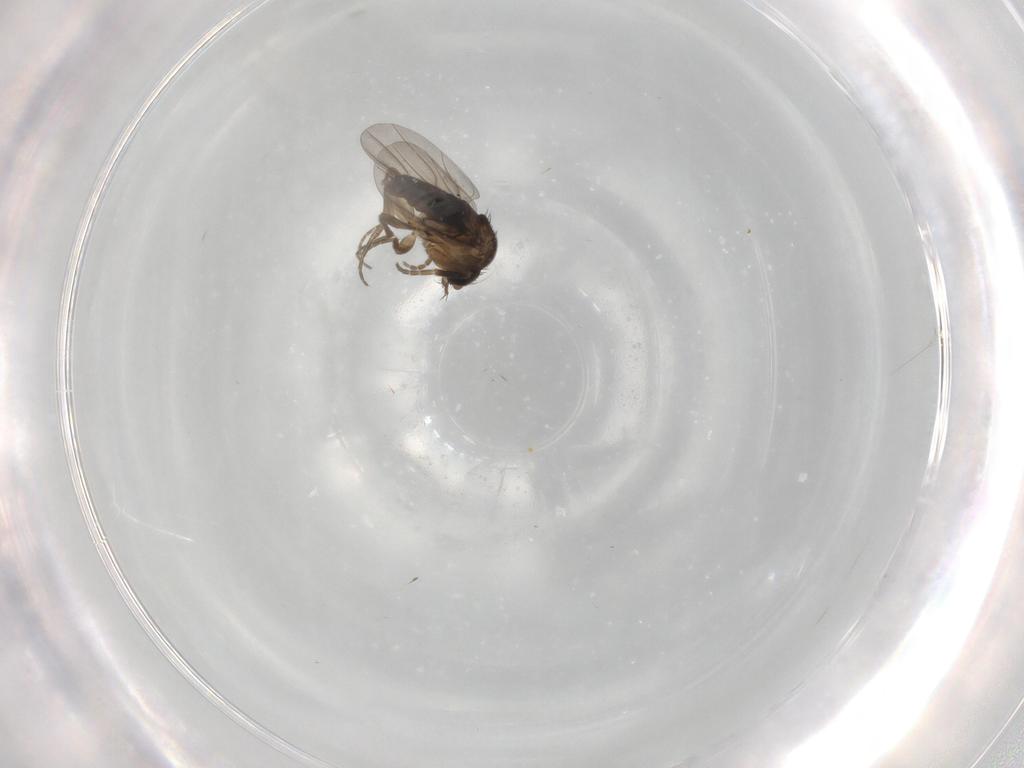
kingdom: Animalia
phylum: Arthropoda
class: Insecta
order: Diptera
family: Phoridae
